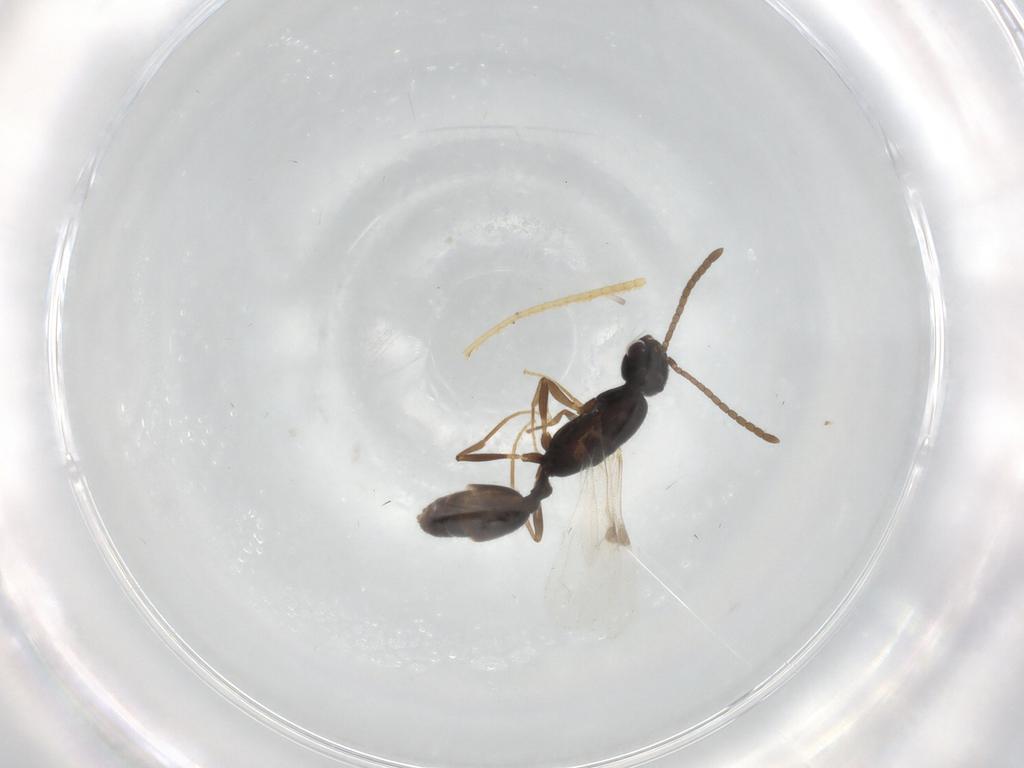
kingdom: Animalia
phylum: Arthropoda
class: Insecta
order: Hymenoptera
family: Formicidae
